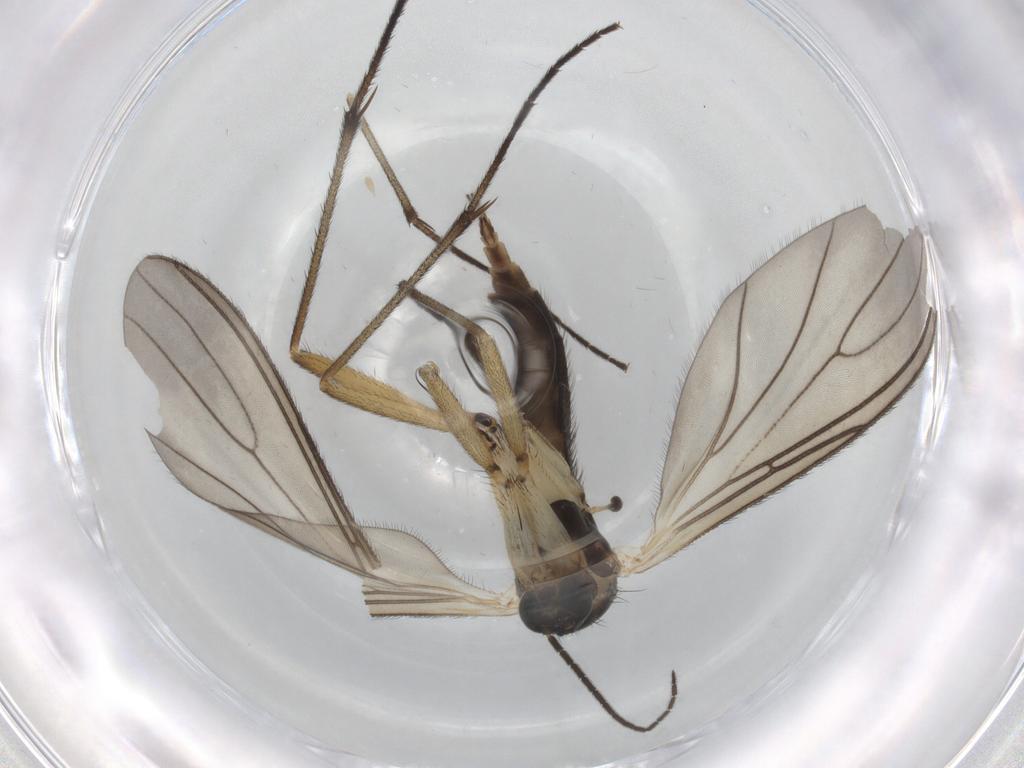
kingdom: Animalia
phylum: Arthropoda
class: Insecta
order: Diptera
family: Sciaridae
